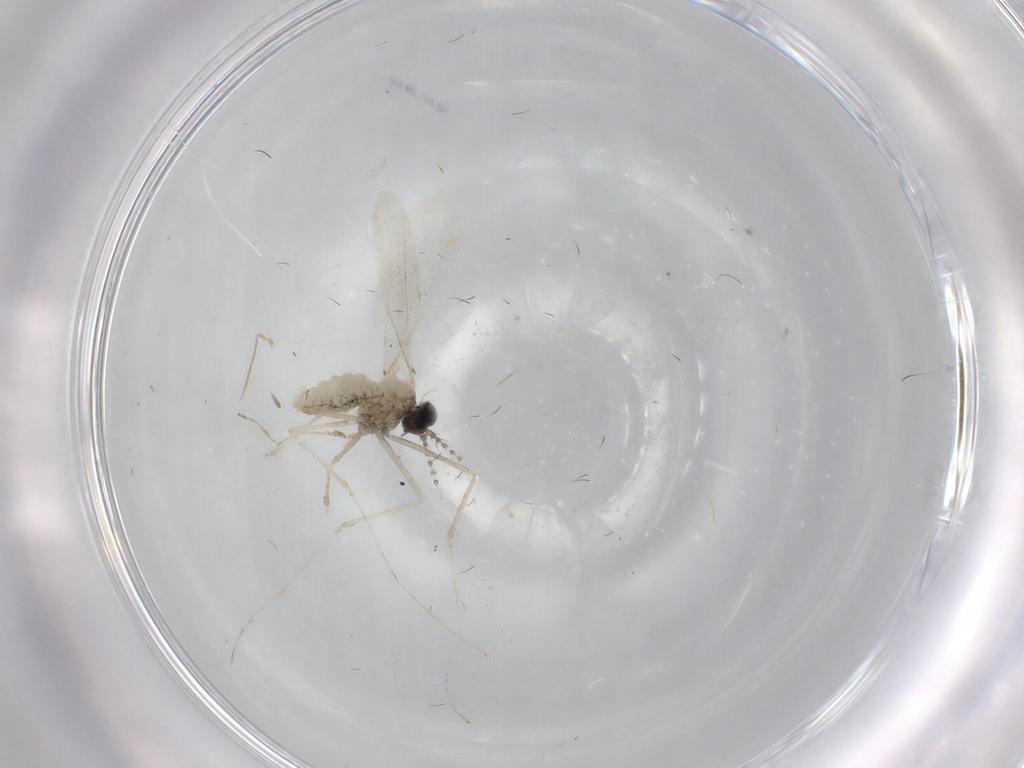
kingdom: Animalia
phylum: Arthropoda
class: Insecta
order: Diptera
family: Cecidomyiidae
